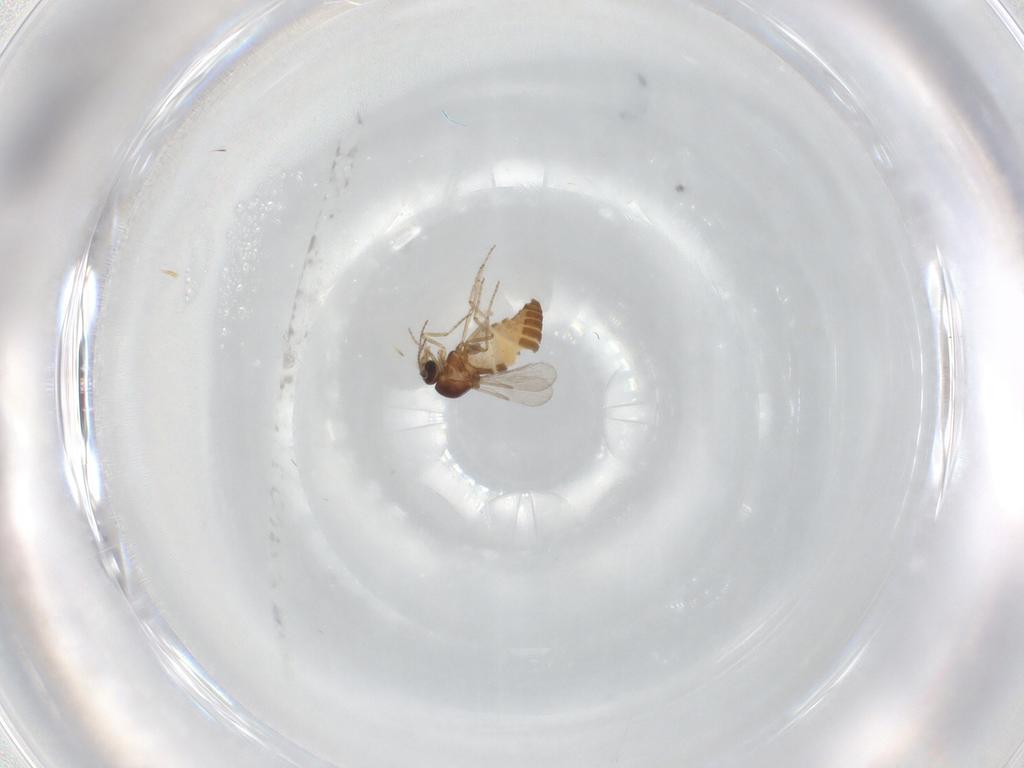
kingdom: Animalia
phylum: Arthropoda
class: Insecta
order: Diptera
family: Ceratopogonidae
